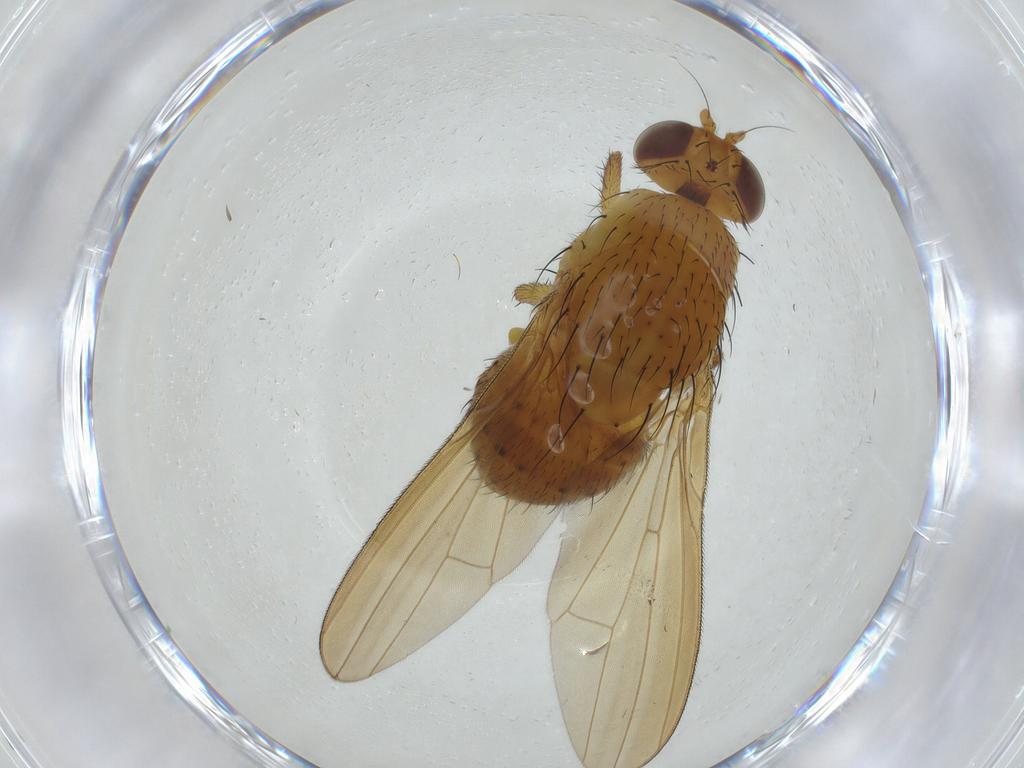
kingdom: Animalia
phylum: Arthropoda
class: Insecta
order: Diptera
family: Lauxaniidae
